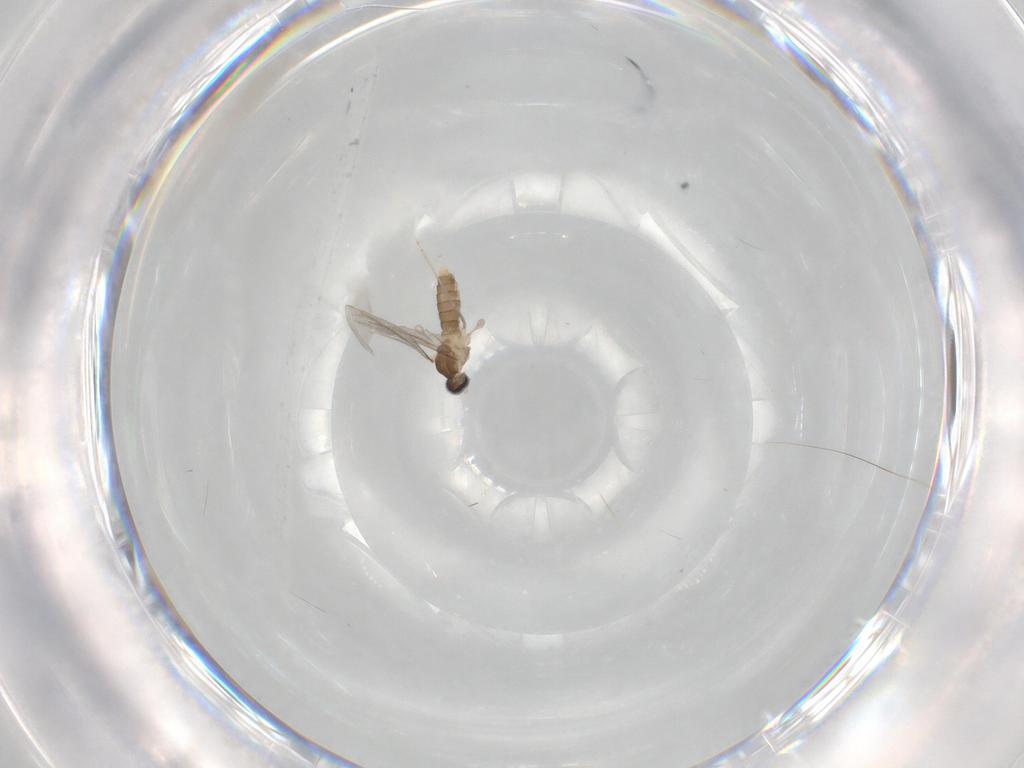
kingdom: Animalia
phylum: Arthropoda
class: Insecta
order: Diptera
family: Cecidomyiidae
